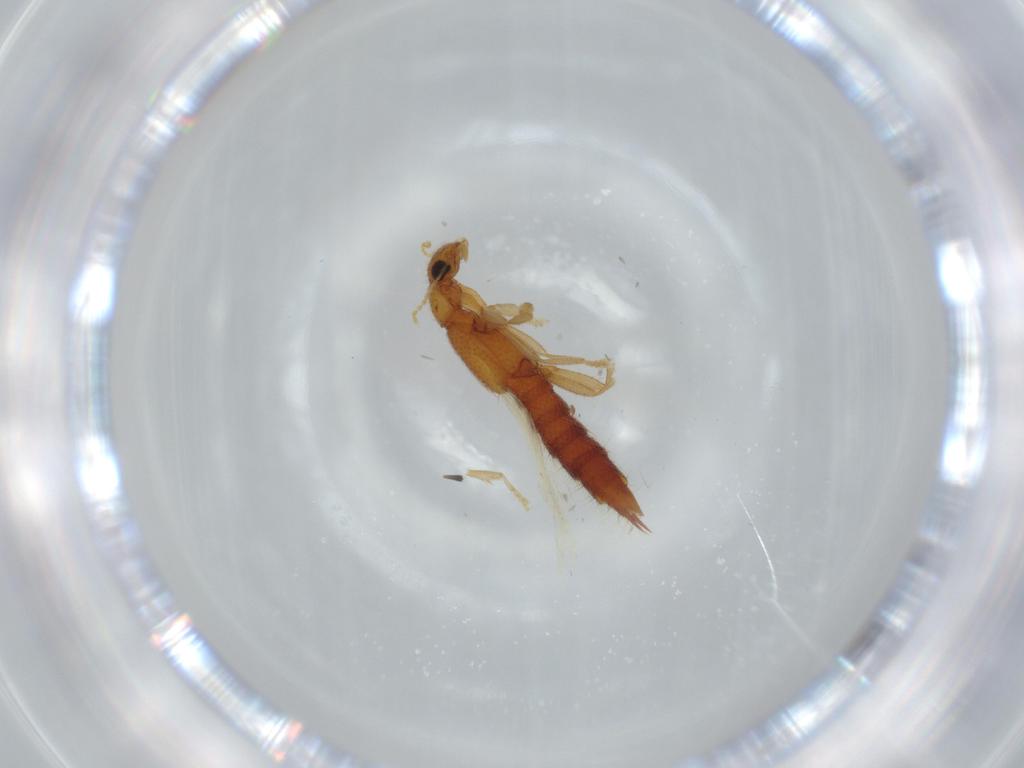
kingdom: Animalia
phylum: Arthropoda
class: Insecta
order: Coleoptera
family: Staphylinidae
